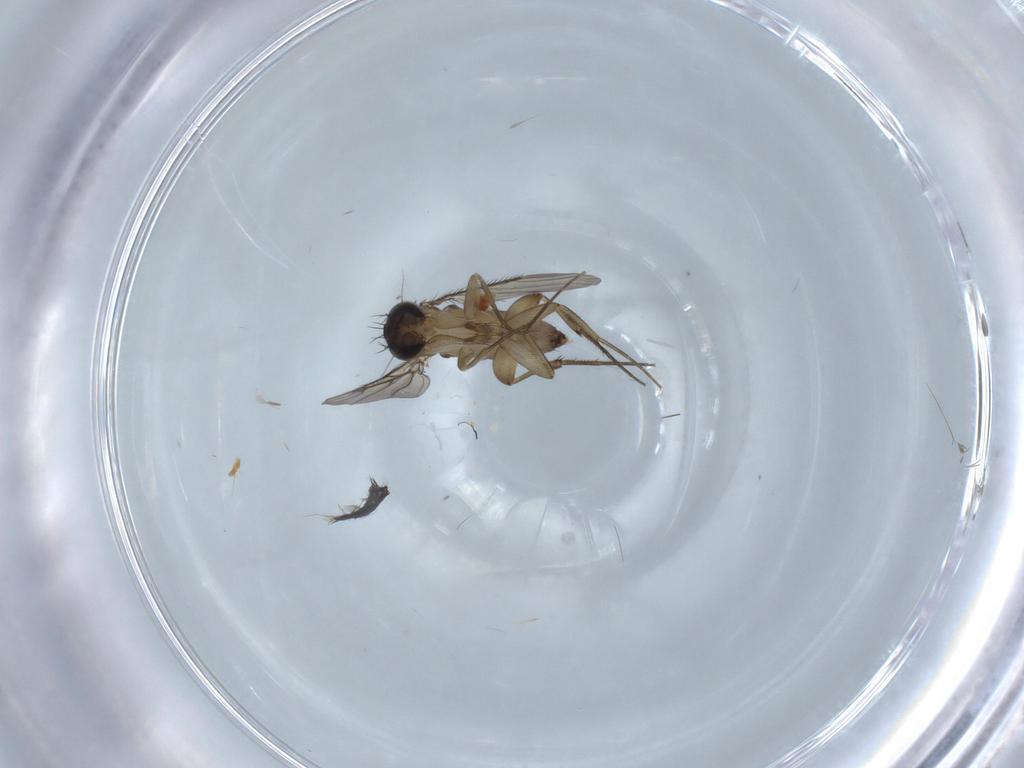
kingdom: Animalia
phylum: Arthropoda
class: Insecta
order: Diptera
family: Phoridae
